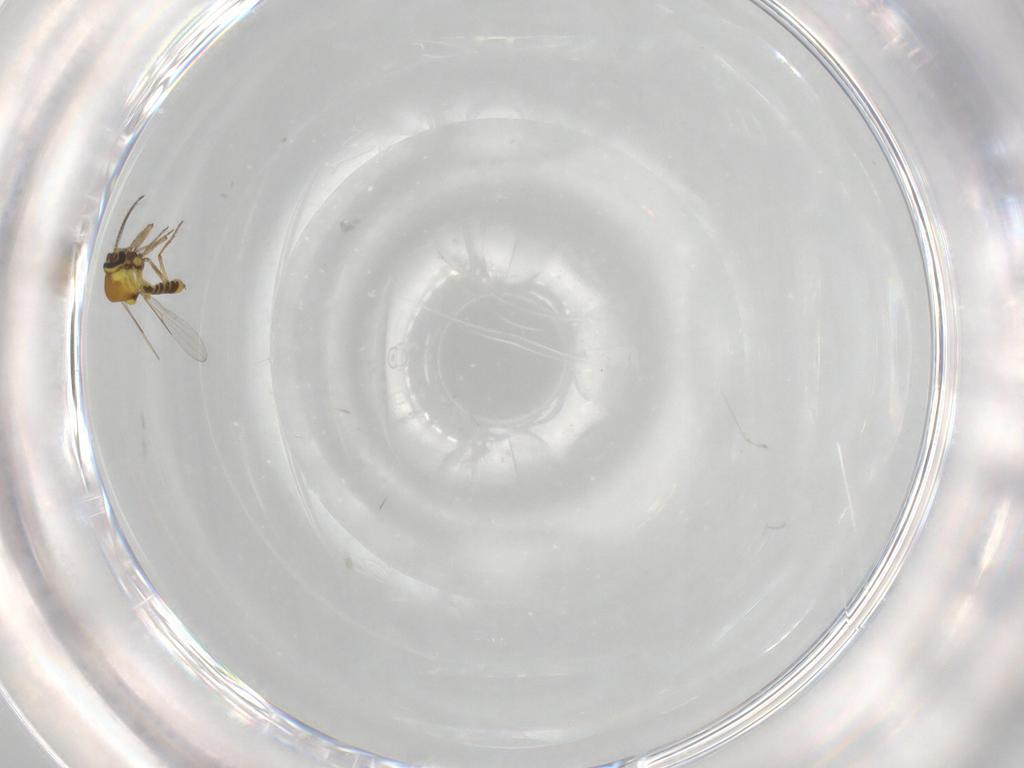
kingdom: Animalia
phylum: Arthropoda
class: Insecta
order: Diptera
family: Ceratopogonidae
